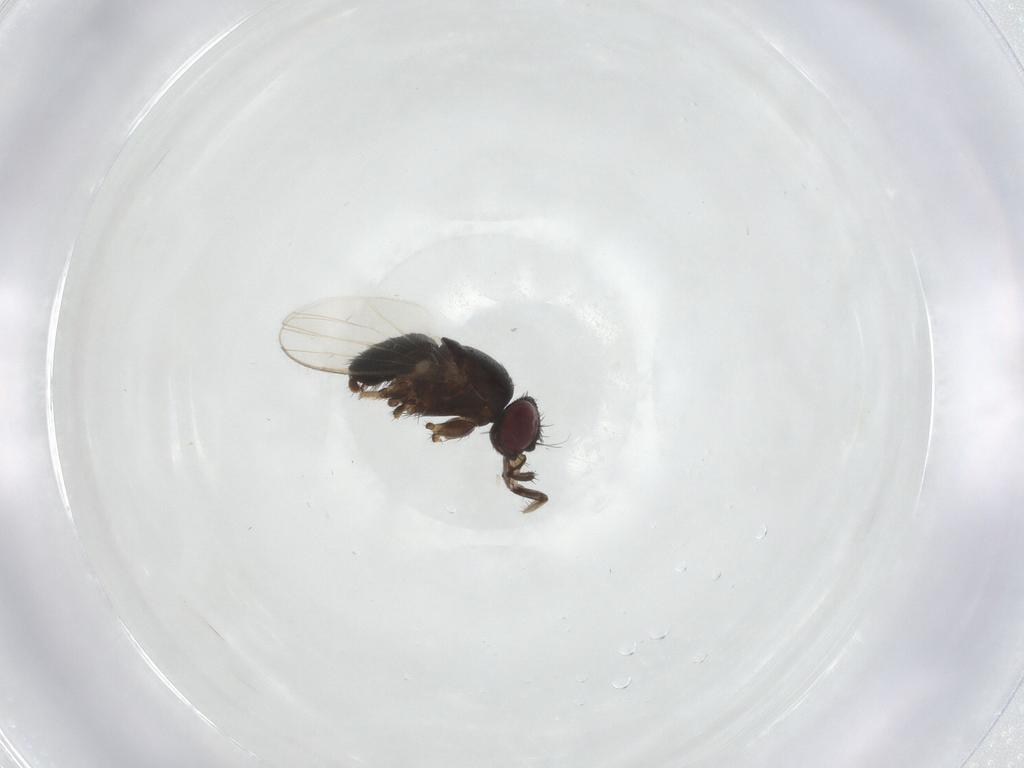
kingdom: Animalia
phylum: Arthropoda
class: Insecta
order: Diptera
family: Milichiidae
